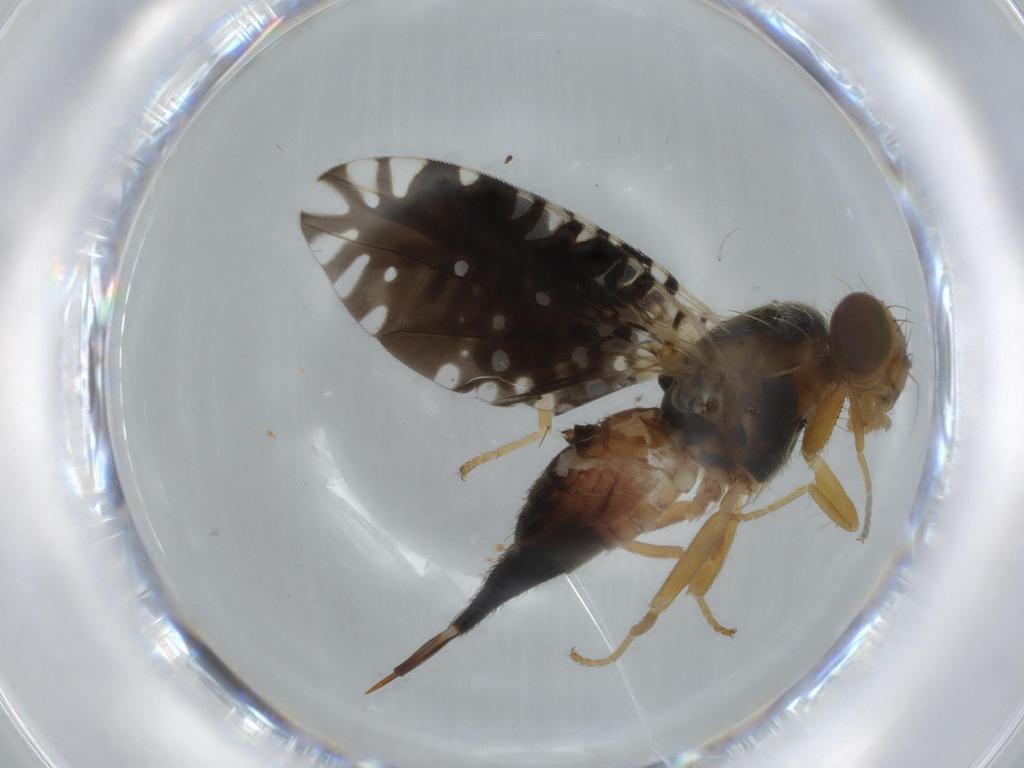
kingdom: Animalia
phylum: Arthropoda
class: Insecta
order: Diptera
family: Tephritidae
